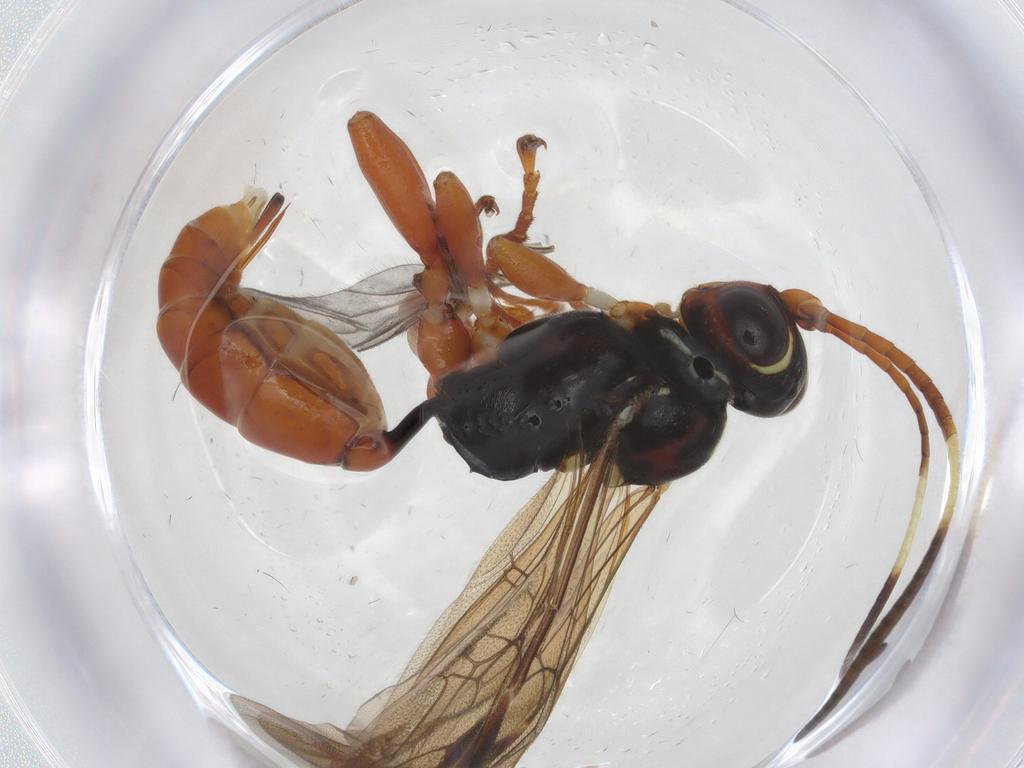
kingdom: Animalia
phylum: Arthropoda
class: Insecta
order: Hymenoptera
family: Ichneumonidae
